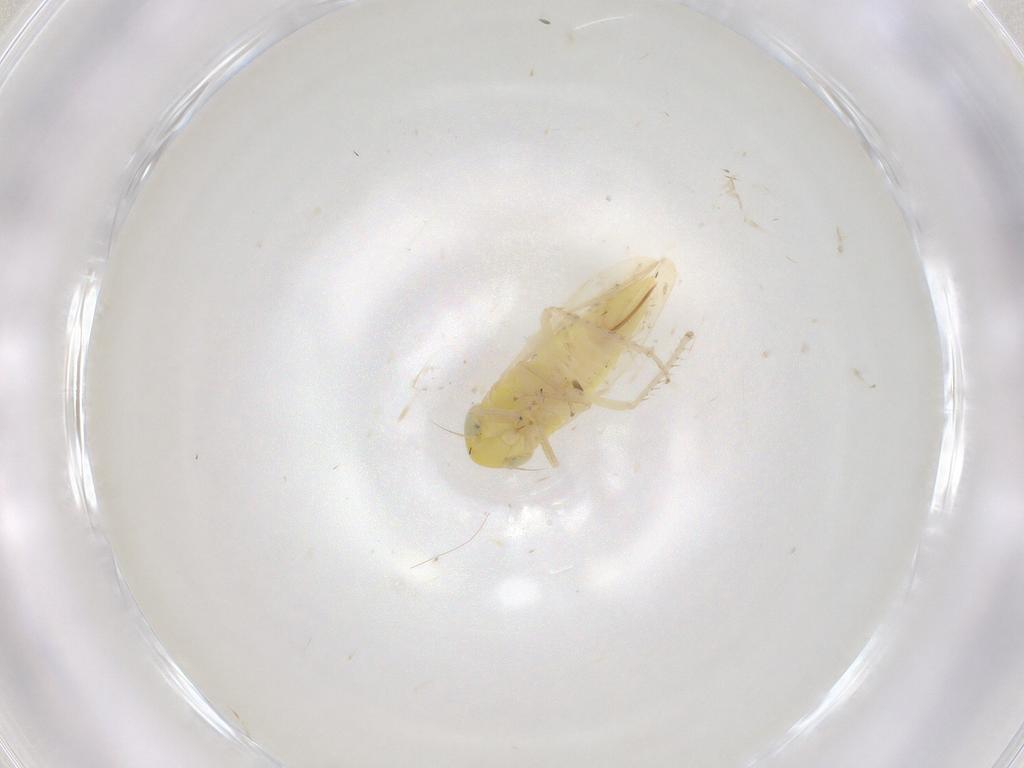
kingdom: Animalia
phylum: Arthropoda
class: Insecta
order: Hemiptera
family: Cicadellidae
